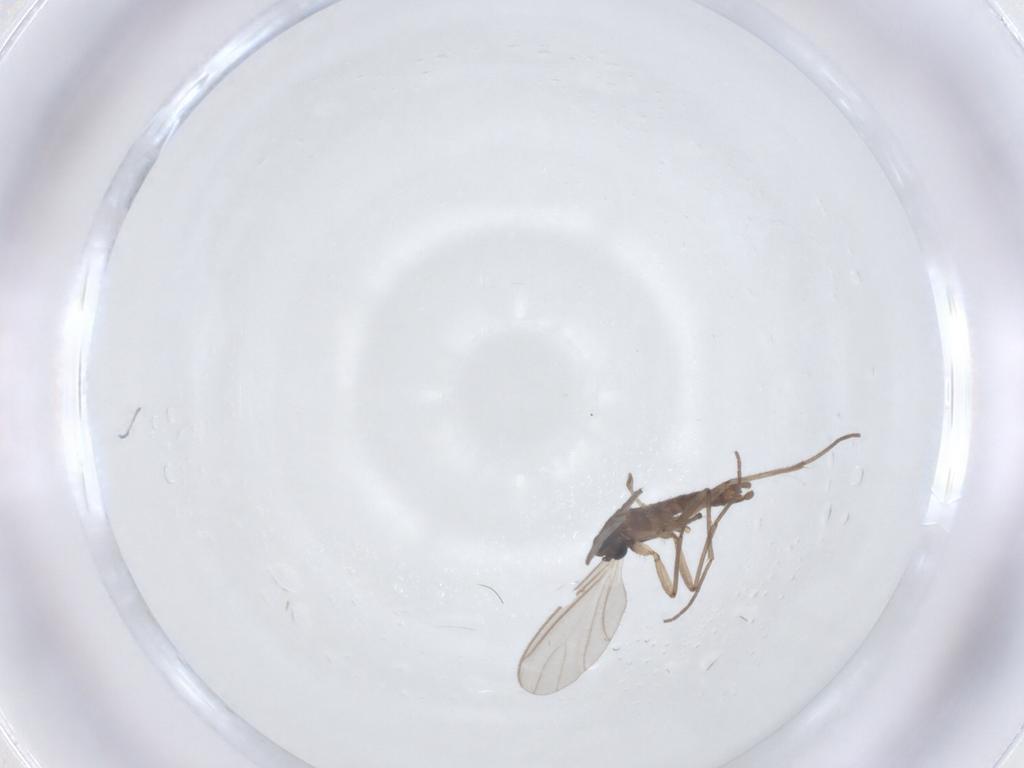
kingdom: Animalia
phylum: Arthropoda
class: Insecta
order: Diptera
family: Sciaridae
